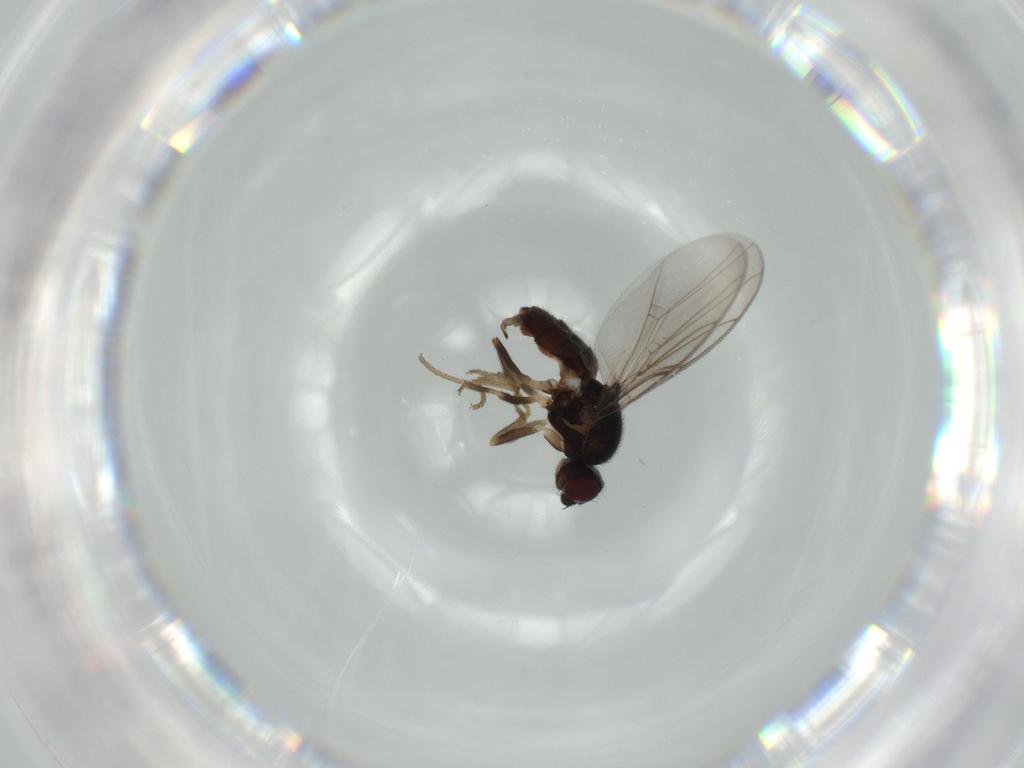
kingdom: Animalia
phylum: Arthropoda
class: Insecta
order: Diptera
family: Chloropidae
